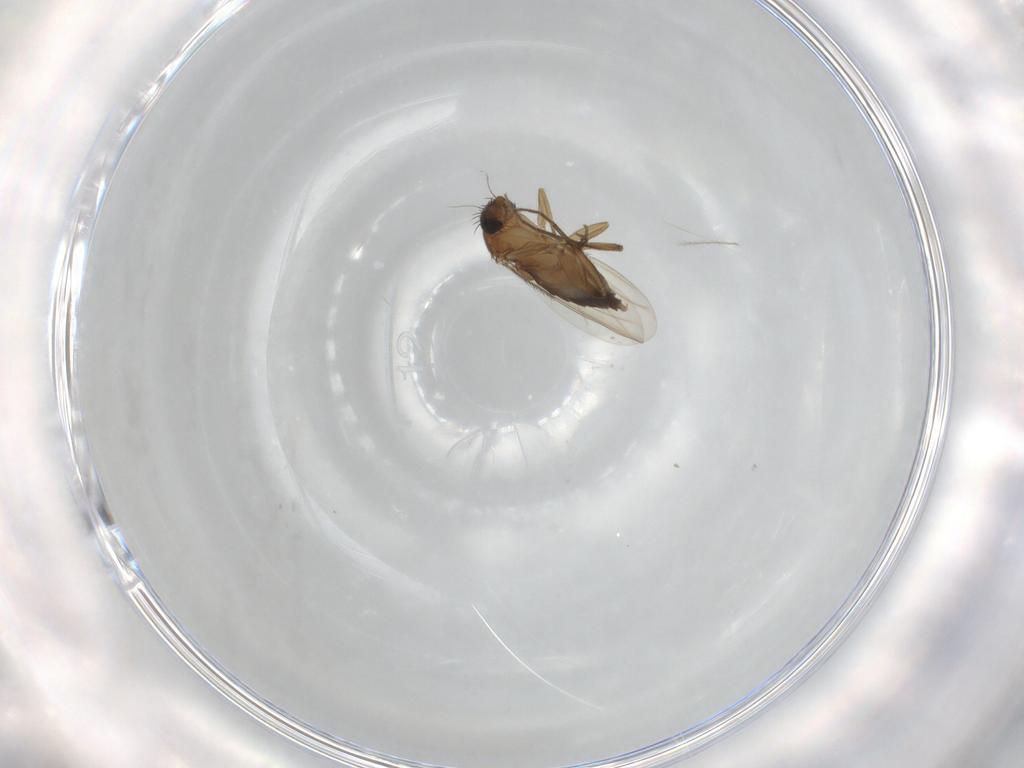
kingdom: Animalia
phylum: Arthropoda
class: Insecta
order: Diptera
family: Phoridae
